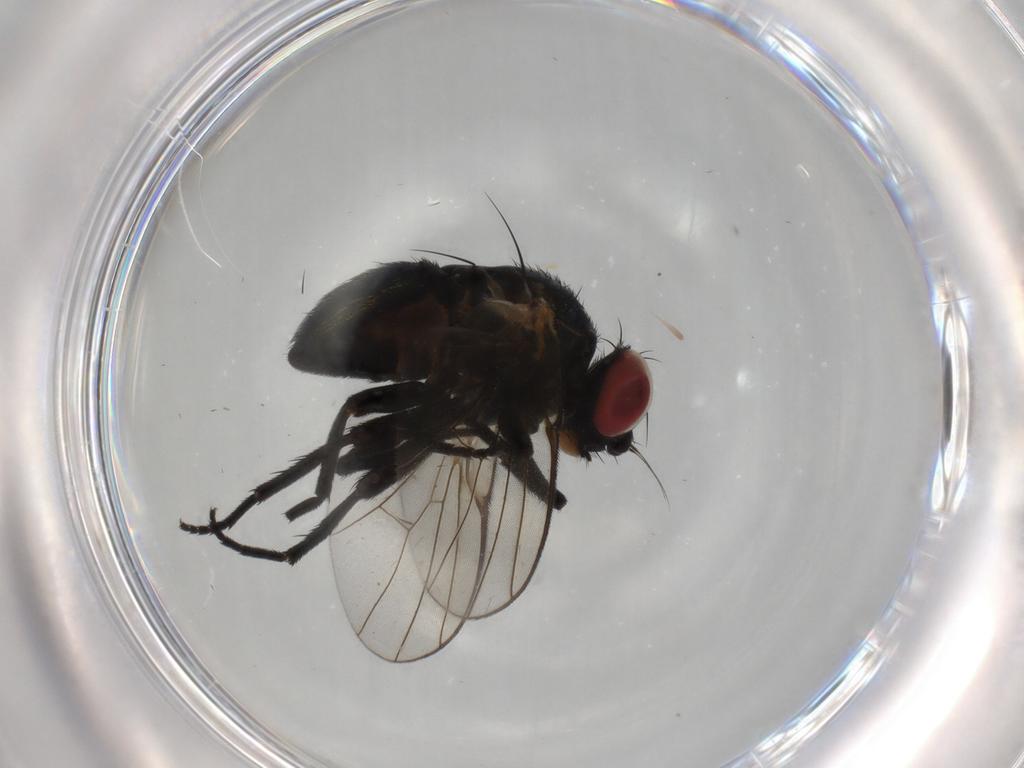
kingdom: Animalia
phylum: Arthropoda
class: Insecta
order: Diptera
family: Agromyzidae
